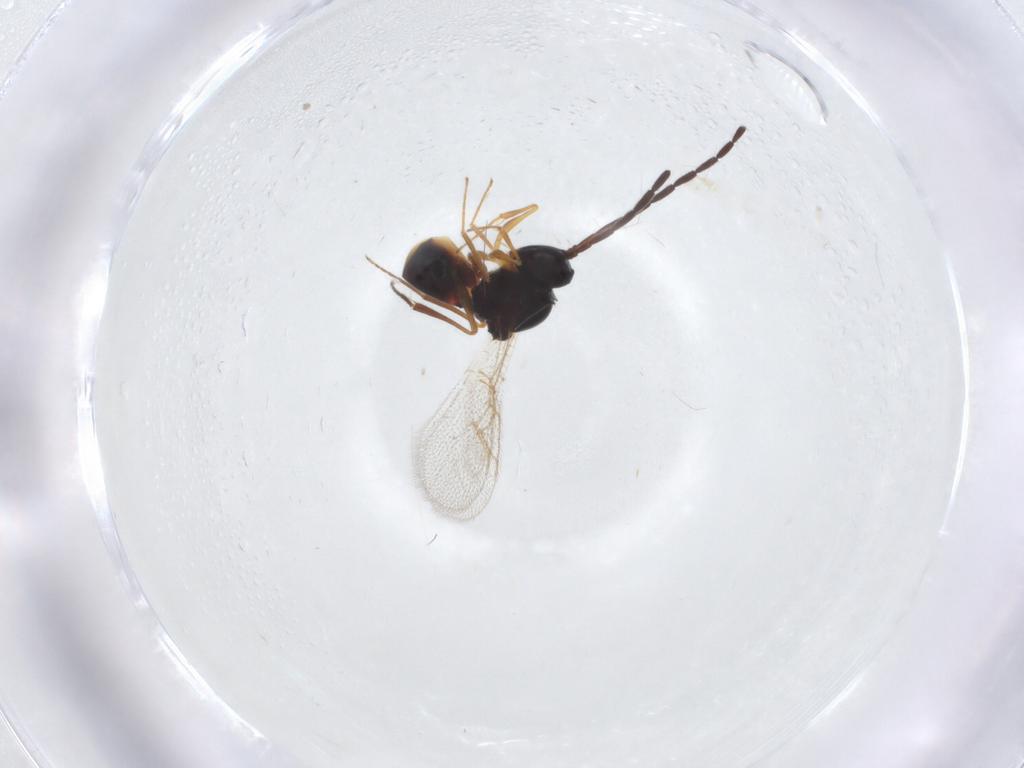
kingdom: Animalia
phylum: Arthropoda
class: Insecta
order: Hymenoptera
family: Figitidae
